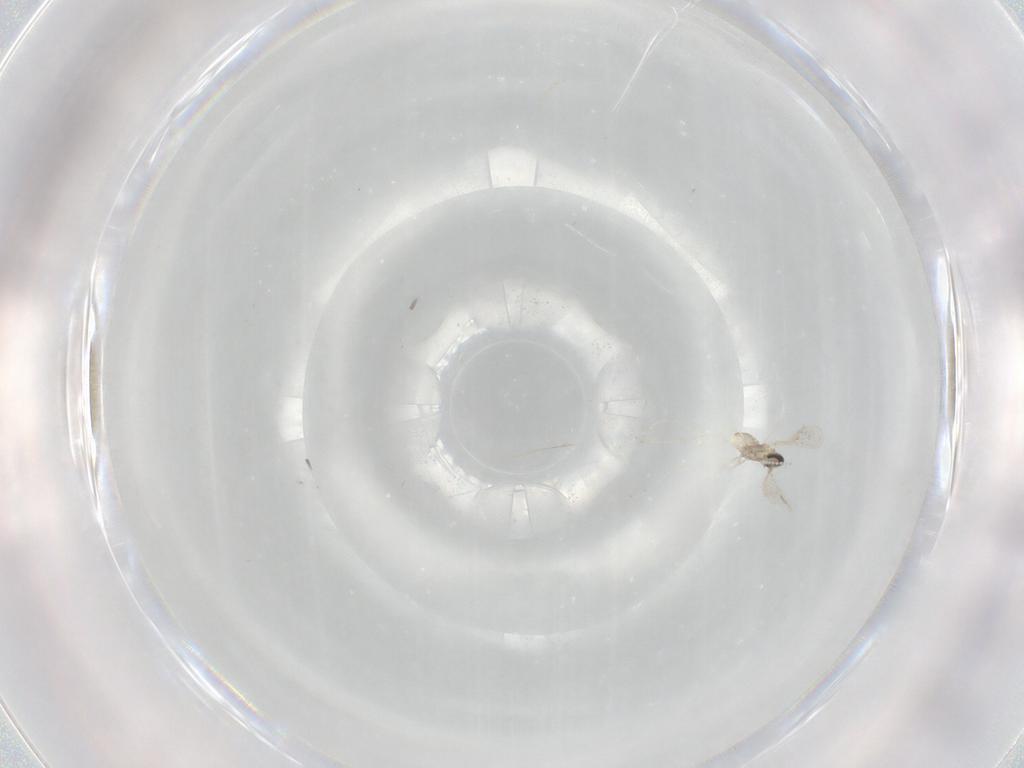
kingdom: Animalia
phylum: Arthropoda
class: Insecta
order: Diptera
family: Cecidomyiidae
